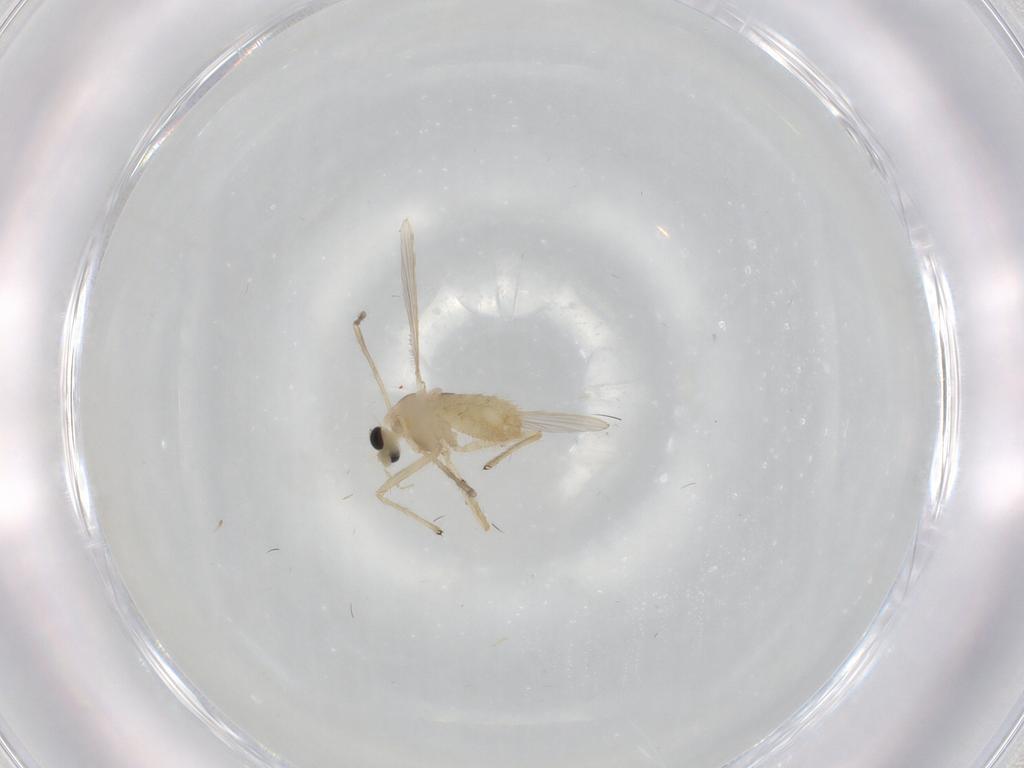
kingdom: Animalia
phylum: Arthropoda
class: Insecta
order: Diptera
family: Chironomidae
